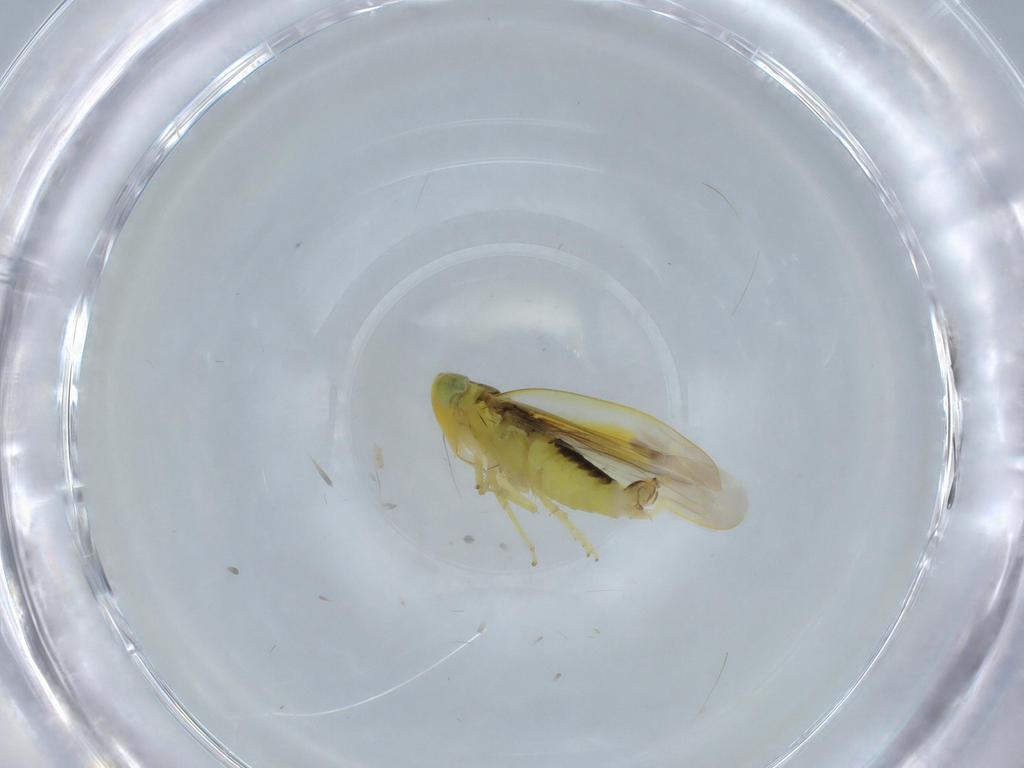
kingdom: Animalia
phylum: Arthropoda
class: Insecta
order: Hemiptera
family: Cicadellidae
